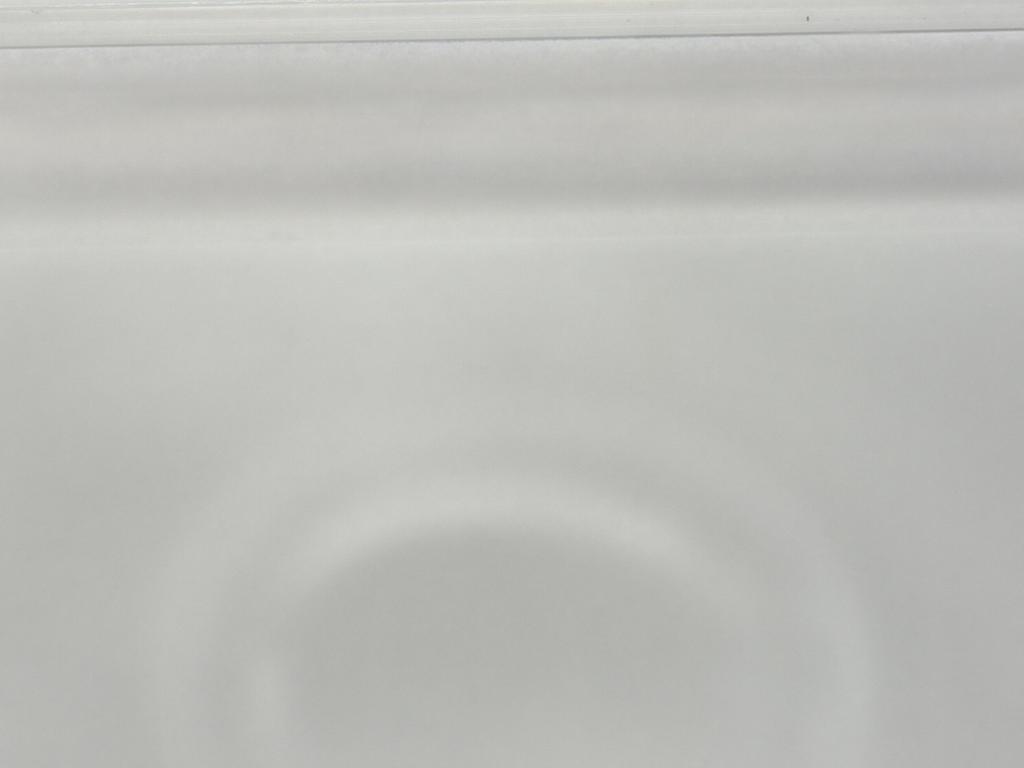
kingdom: Animalia
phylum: Arthropoda
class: Insecta
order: Diptera
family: Sciaridae
